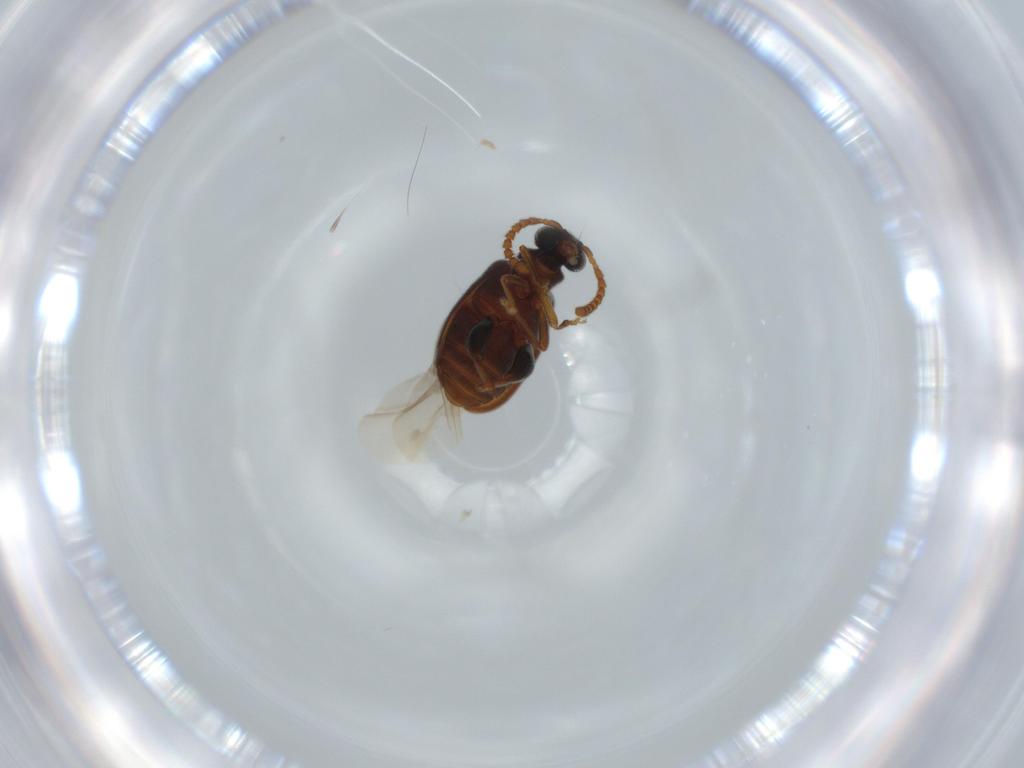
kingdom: Animalia
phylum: Arthropoda
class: Insecta
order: Coleoptera
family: Aderidae
